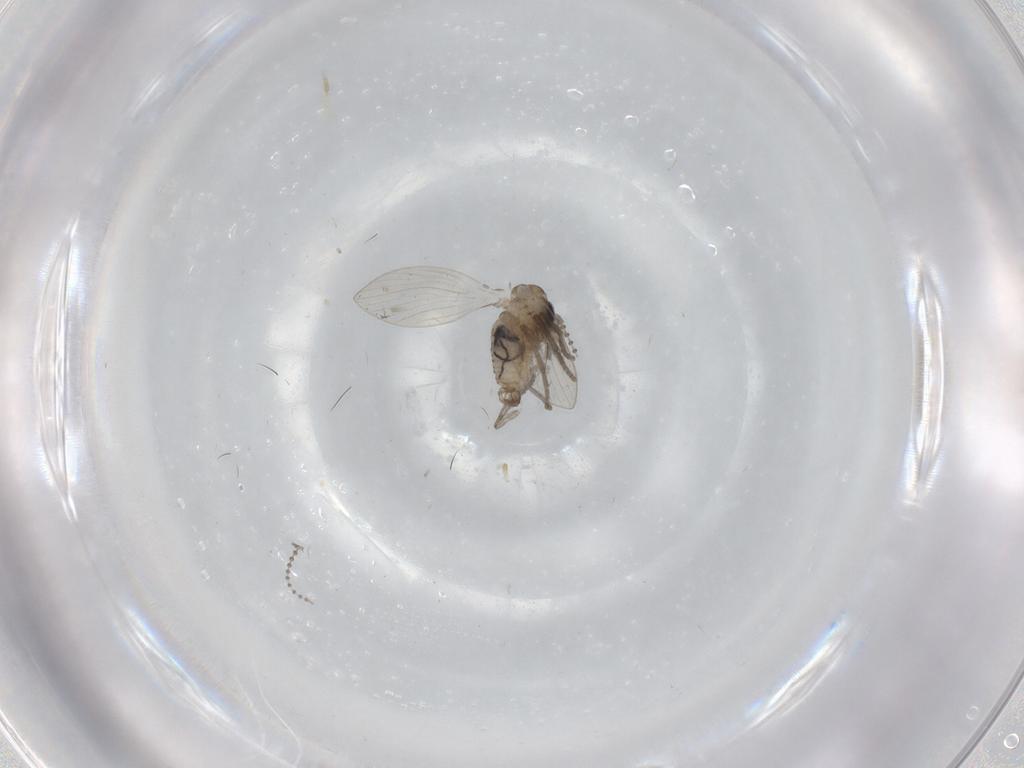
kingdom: Animalia
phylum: Arthropoda
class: Insecta
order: Diptera
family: Psychodidae
